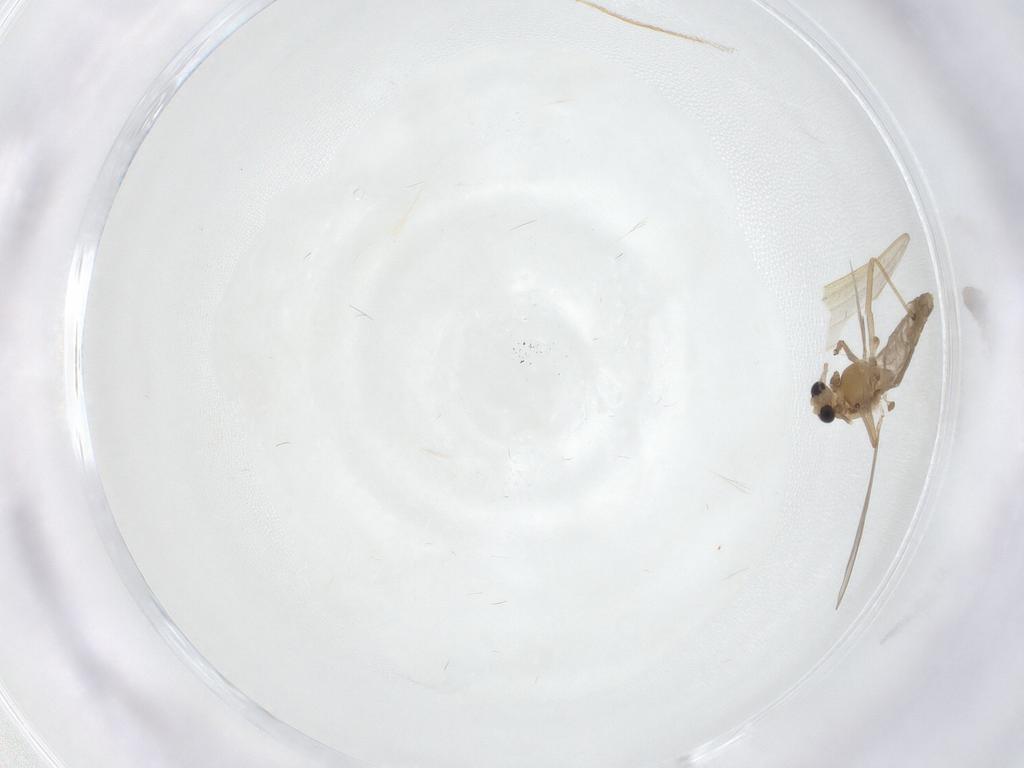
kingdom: Animalia
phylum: Arthropoda
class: Insecta
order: Diptera
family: Chironomidae
